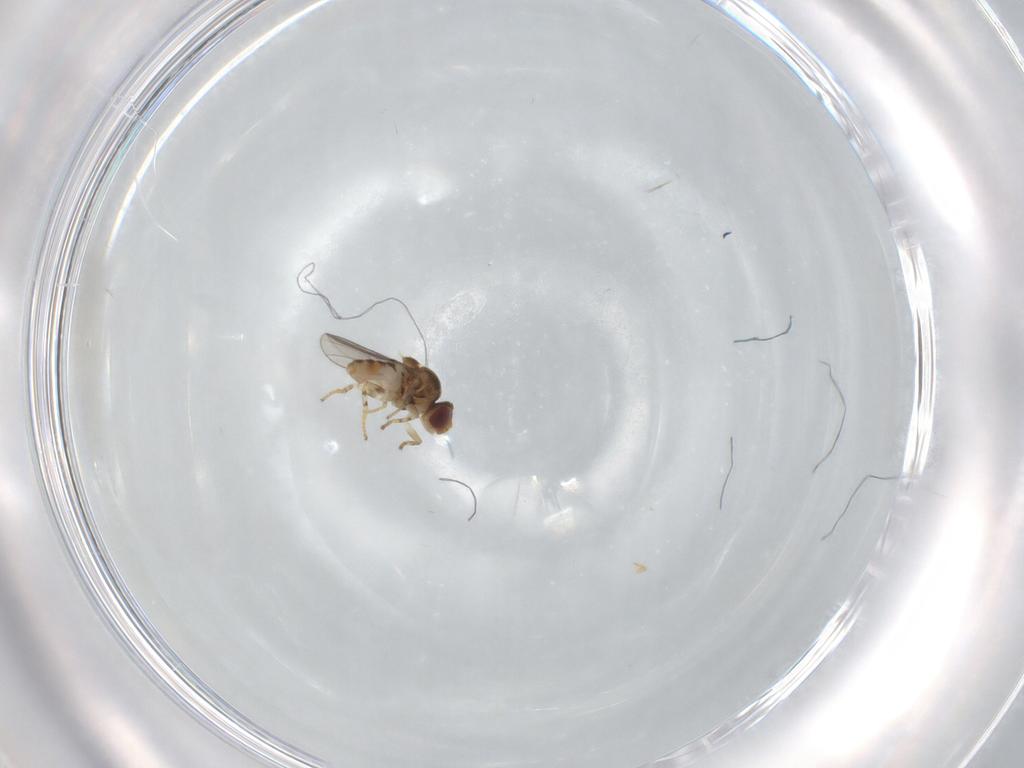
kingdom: Animalia
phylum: Arthropoda
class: Insecta
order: Diptera
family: Chloropidae
